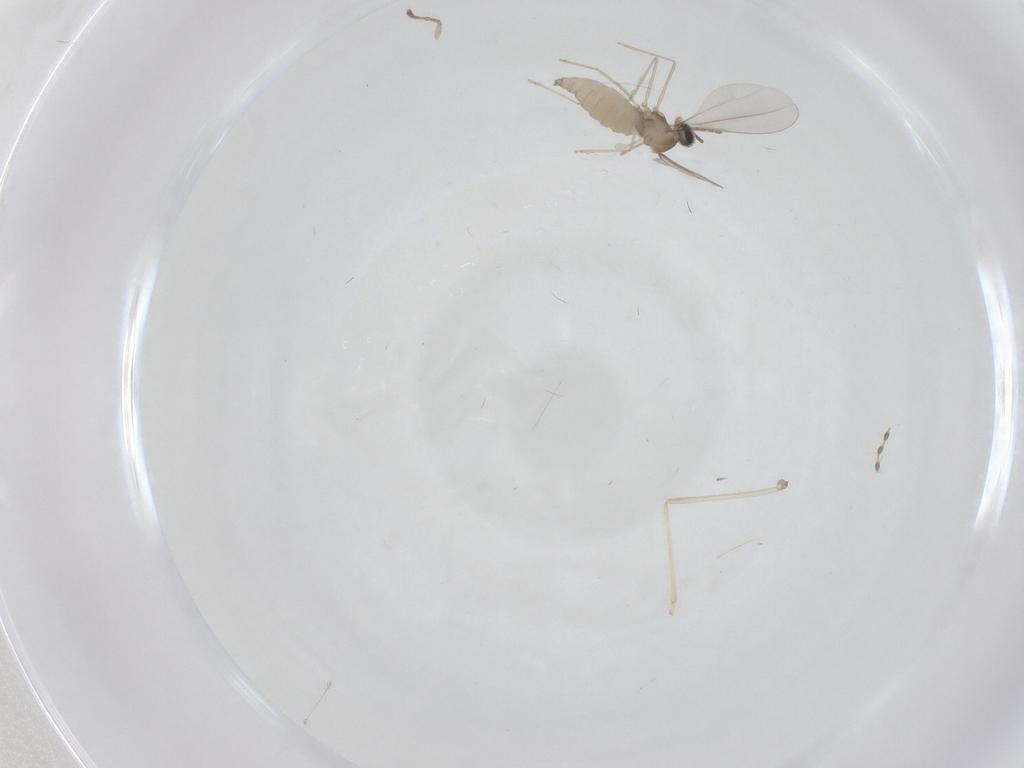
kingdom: Animalia
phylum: Arthropoda
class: Insecta
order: Diptera
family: Cecidomyiidae
